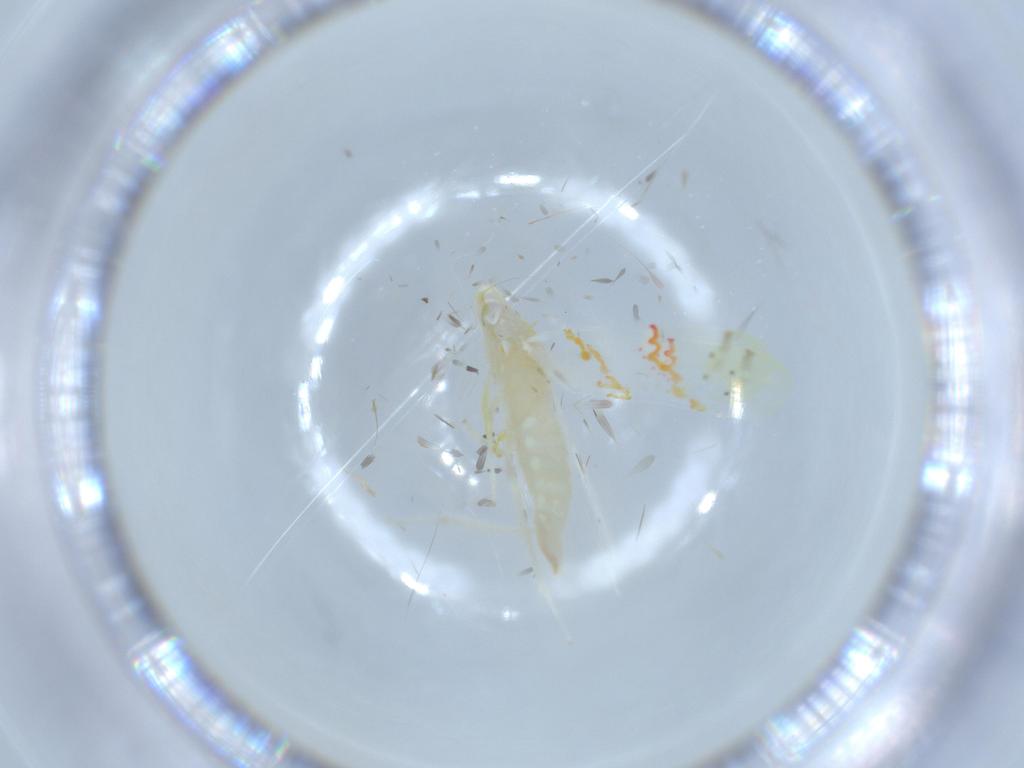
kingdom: Animalia
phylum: Arthropoda
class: Insecta
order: Hemiptera
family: Cicadellidae
